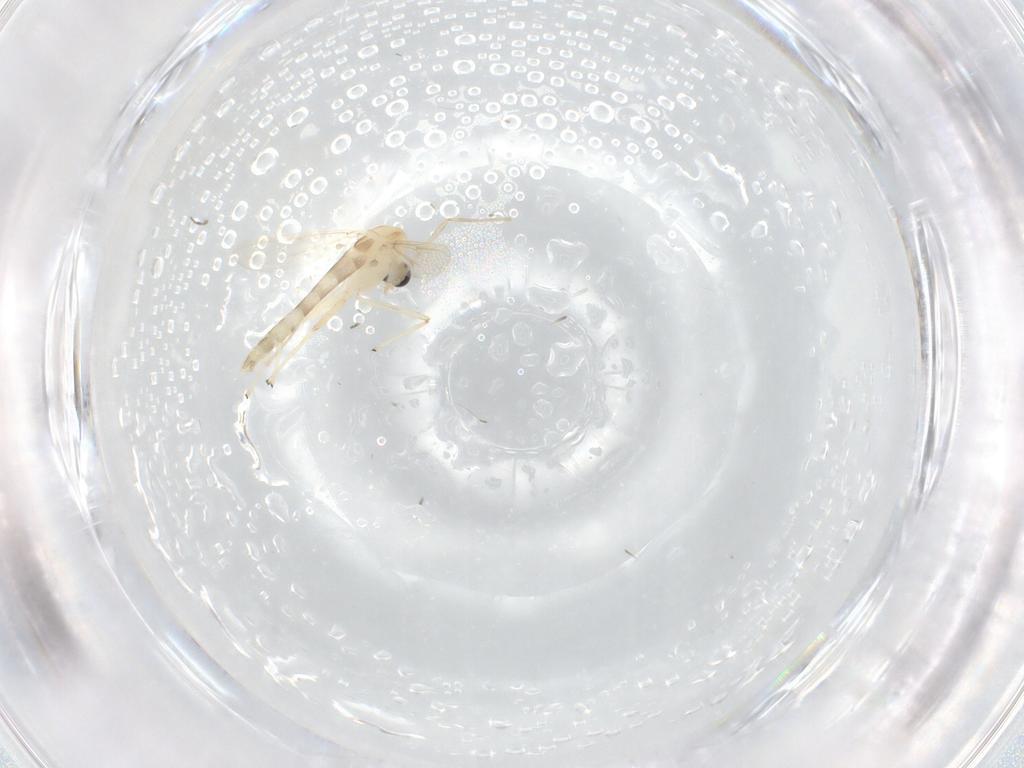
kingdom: Animalia
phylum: Arthropoda
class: Insecta
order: Diptera
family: Chironomidae
